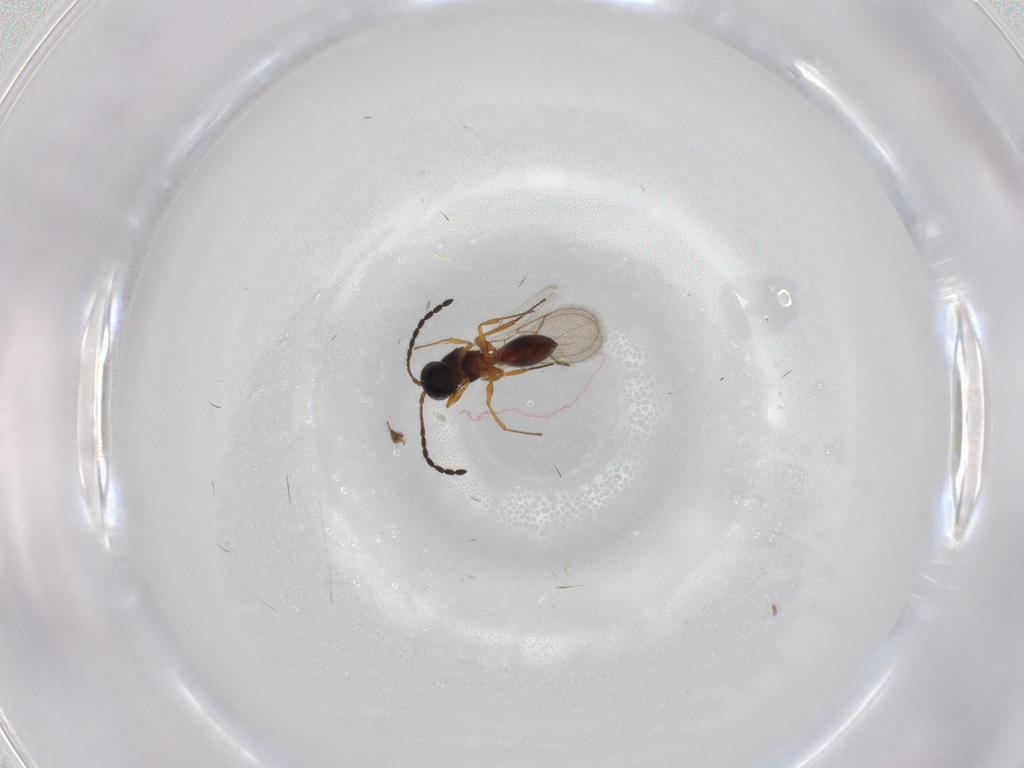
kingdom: Animalia
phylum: Arthropoda
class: Insecta
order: Hymenoptera
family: Figitidae
